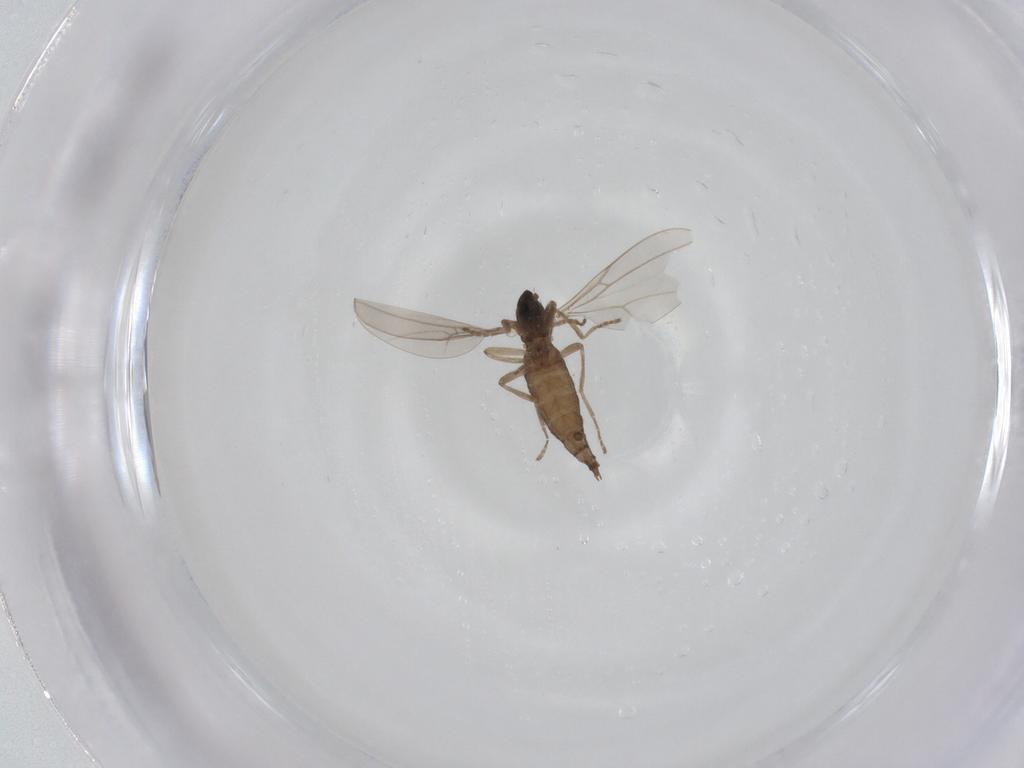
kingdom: Animalia
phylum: Arthropoda
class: Insecta
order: Diptera
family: Cecidomyiidae
